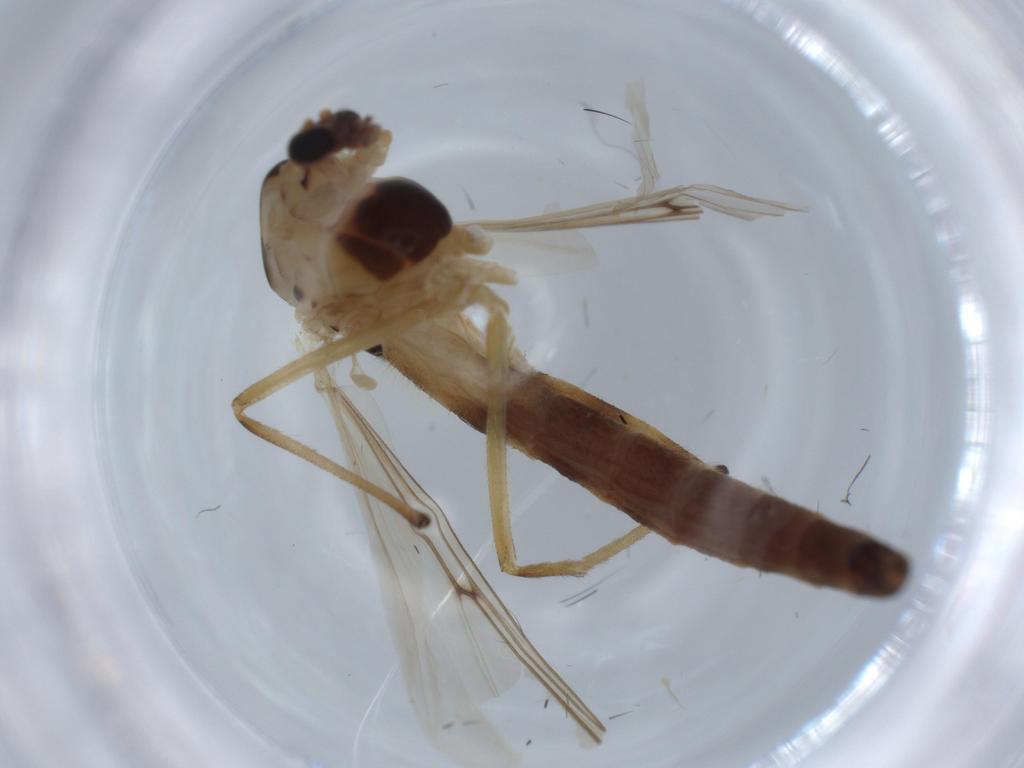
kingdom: Animalia
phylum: Arthropoda
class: Insecta
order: Diptera
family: Chironomidae
